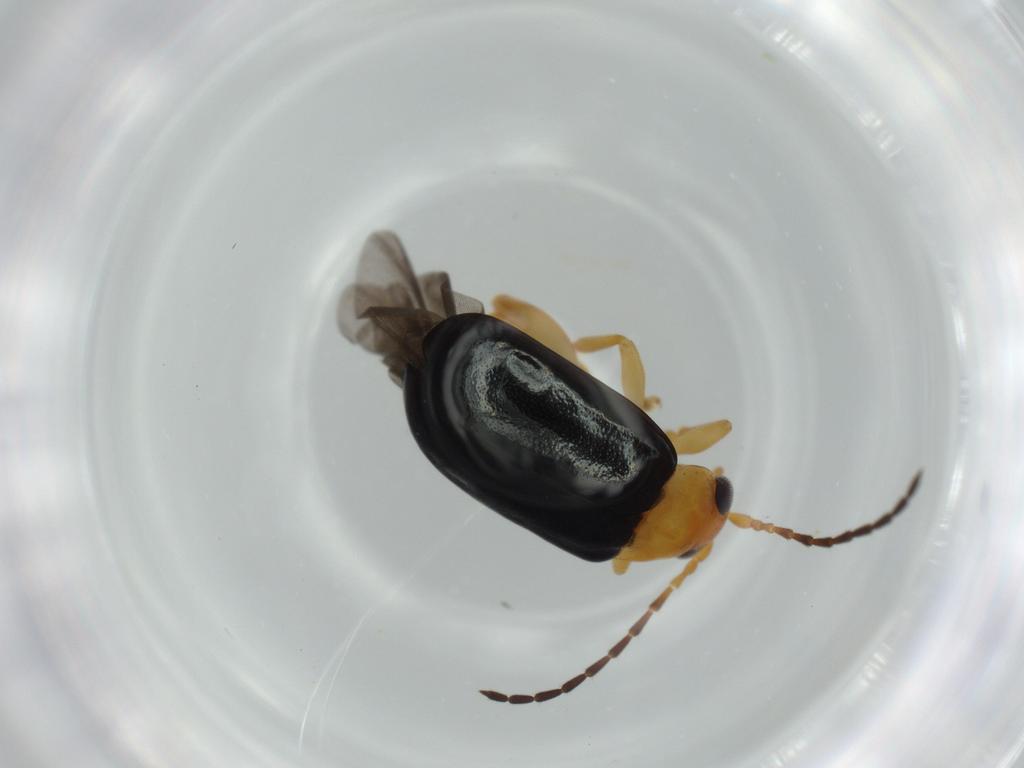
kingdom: Animalia
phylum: Arthropoda
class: Insecta
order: Coleoptera
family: Chrysomelidae
